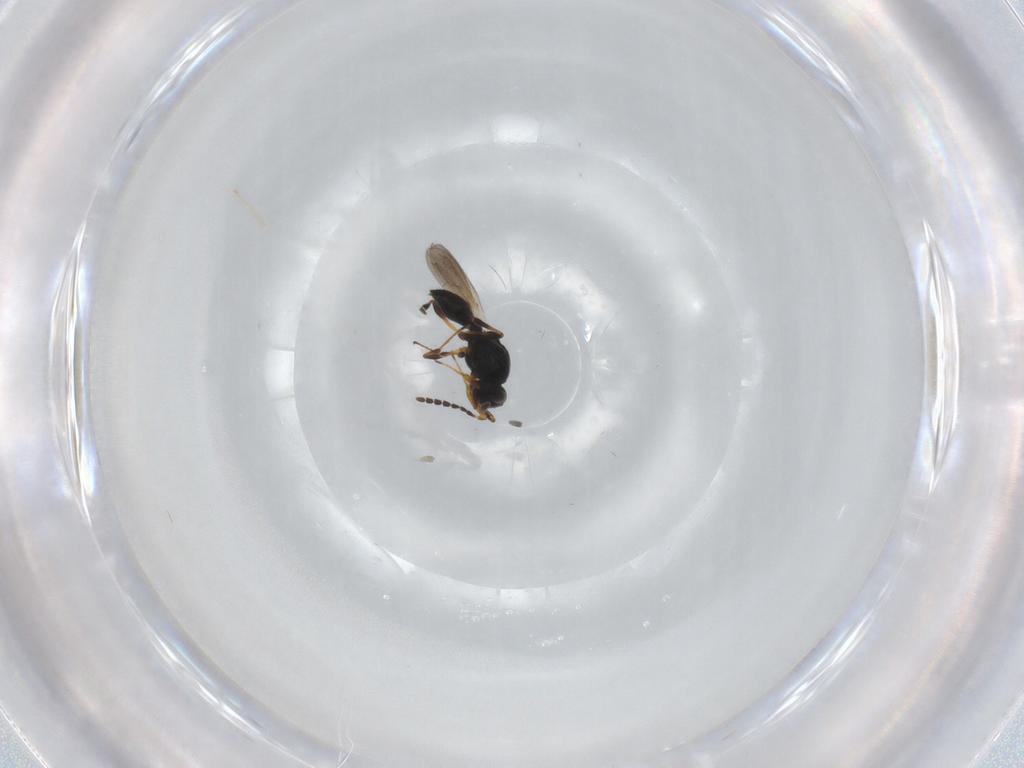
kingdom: Animalia
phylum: Arthropoda
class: Insecta
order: Hymenoptera
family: Platygastridae
